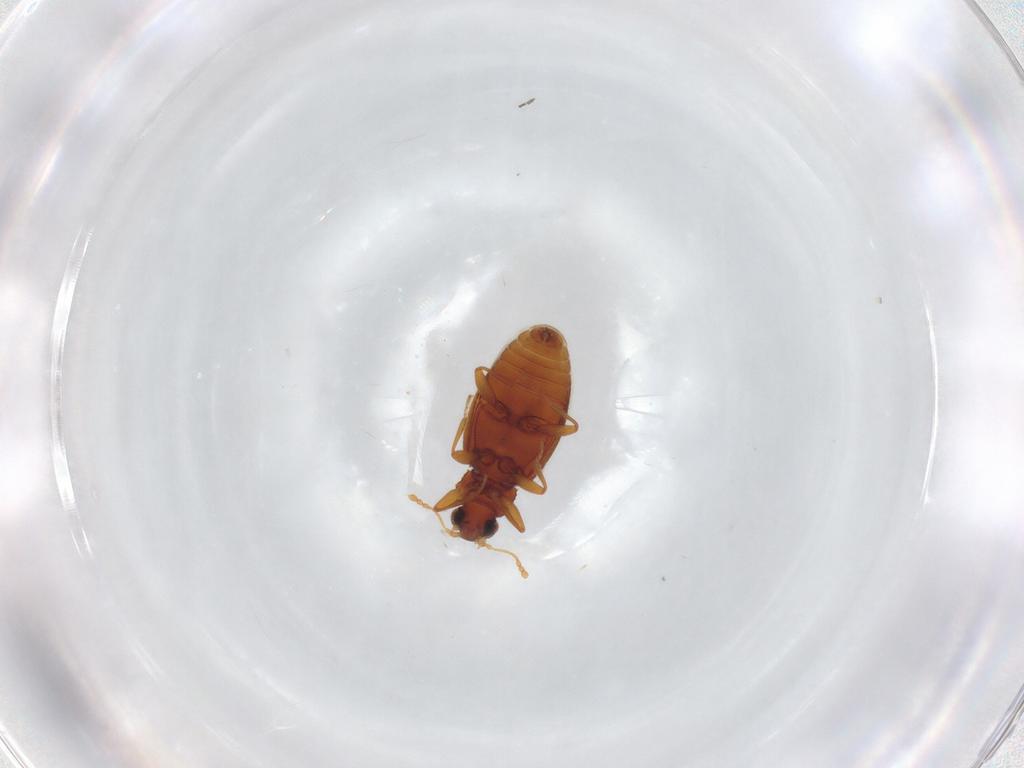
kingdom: Animalia
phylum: Arthropoda
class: Insecta
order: Coleoptera
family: Latridiidae
